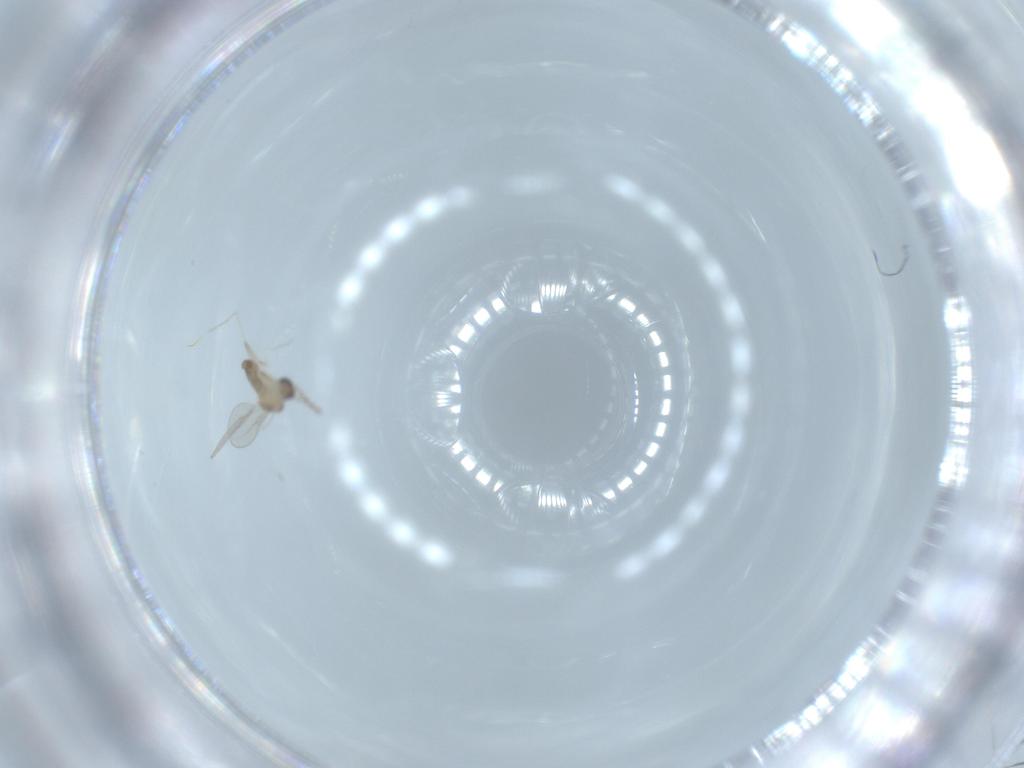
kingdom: Animalia
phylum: Arthropoda
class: Insecta
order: Diptera
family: Cecidomyiidae
